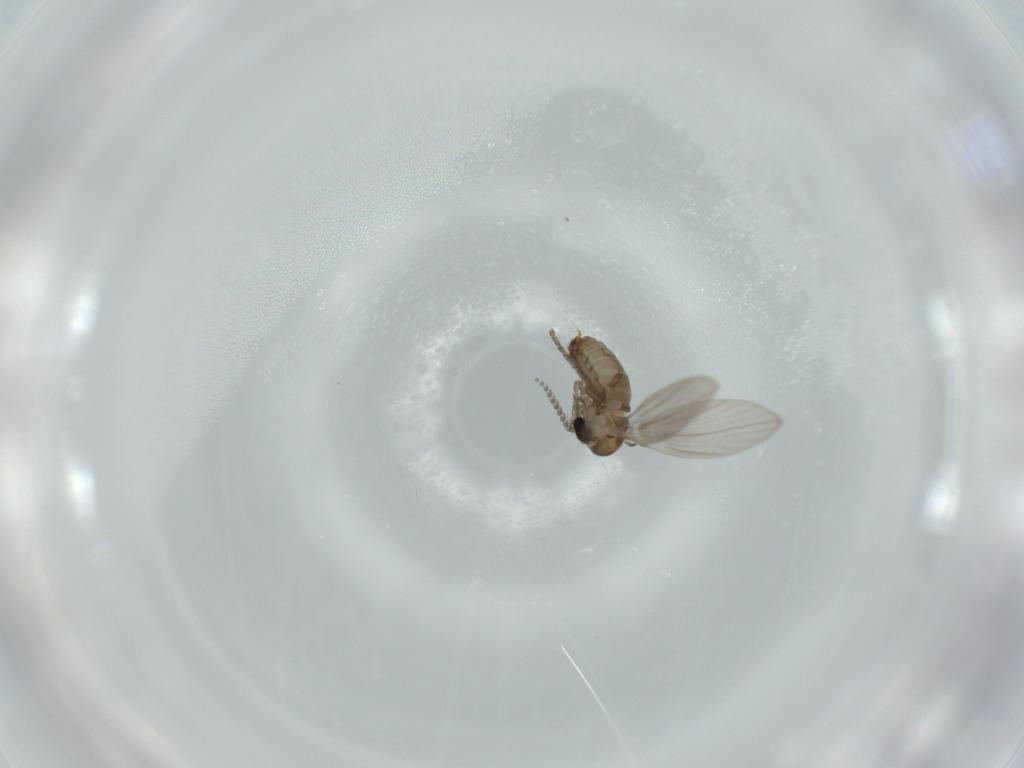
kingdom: Animalia
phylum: Arthropoda
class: Insecta
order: Diptera
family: Psychodidae
